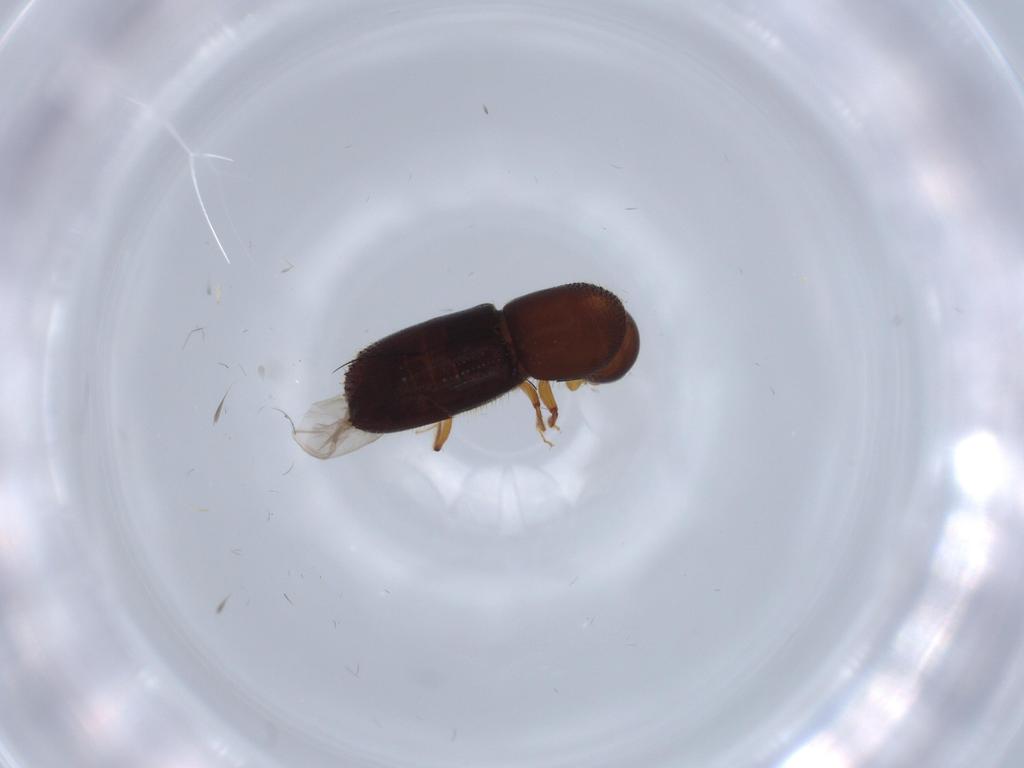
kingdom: Animalia
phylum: Arthropoda
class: Insecta
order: Coleoptera
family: Curculionidae
